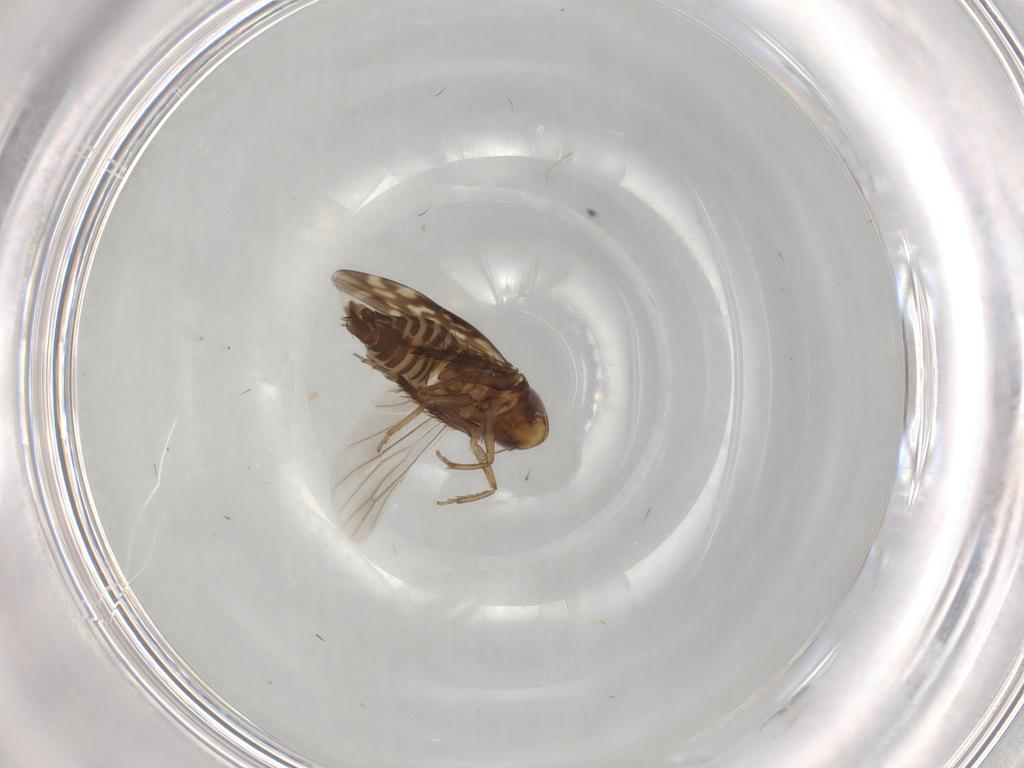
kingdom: Animalia
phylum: Arthropoda
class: Insecta
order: Hemiptera
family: Cicadellidae
